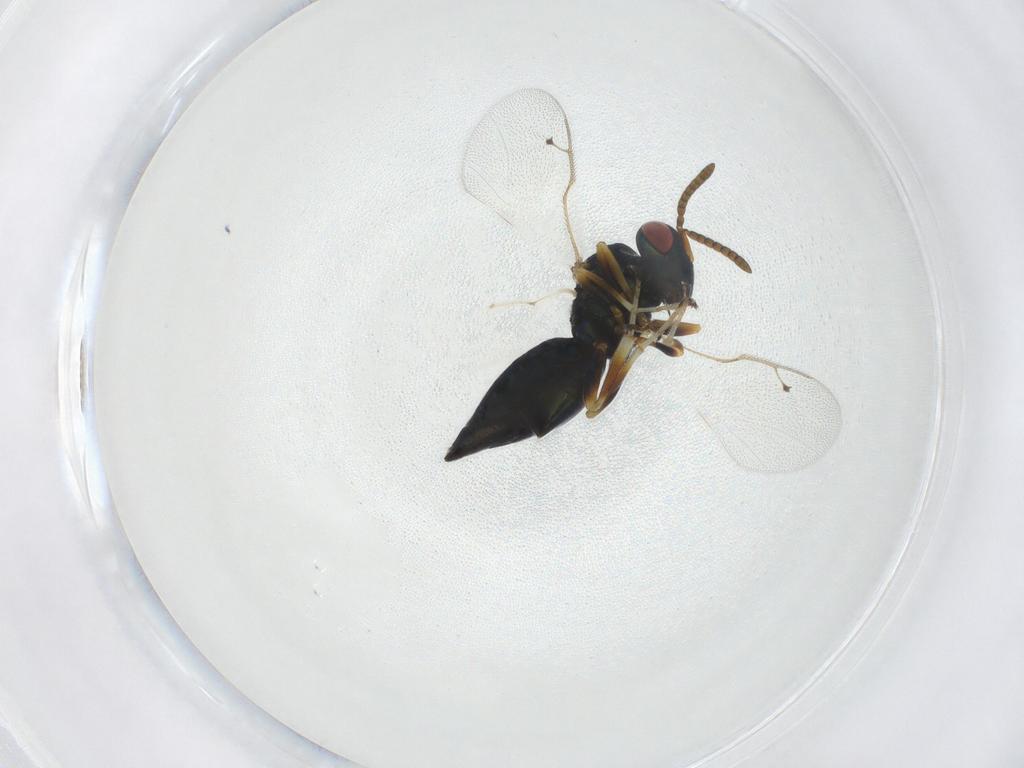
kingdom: Animalia
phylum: Arthropoda
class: Insecta
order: Hymenoptera
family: Pteromalidae
